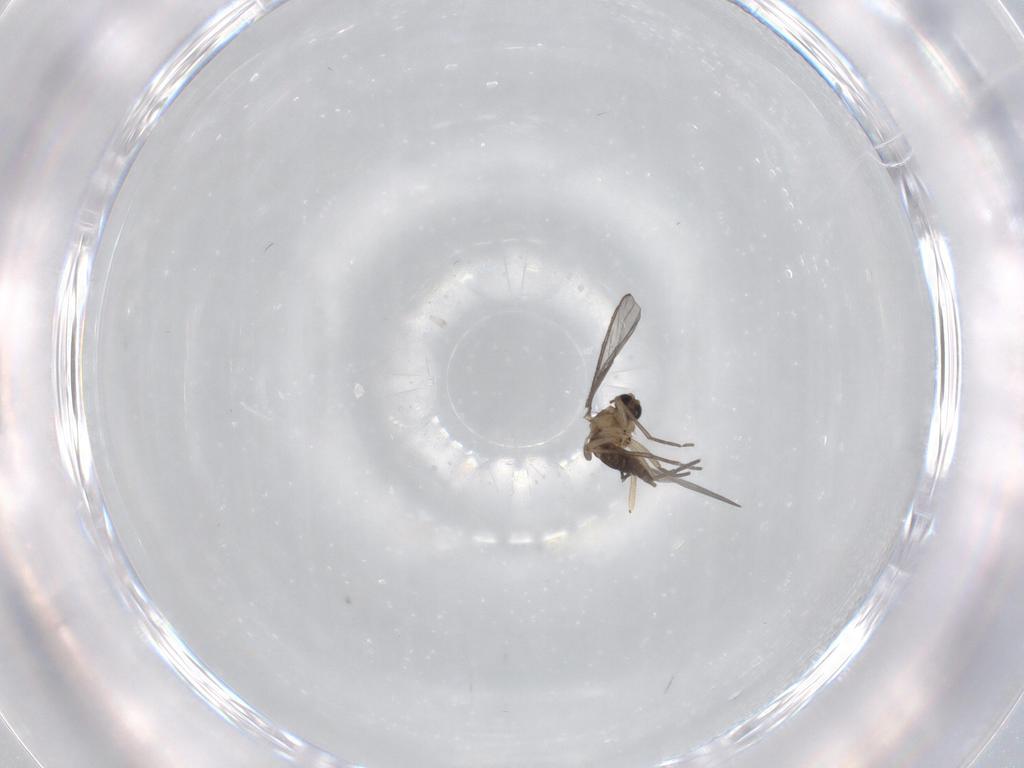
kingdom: Animalia
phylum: Arthropoda
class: Insecta
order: Diptera
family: Sciaridae
